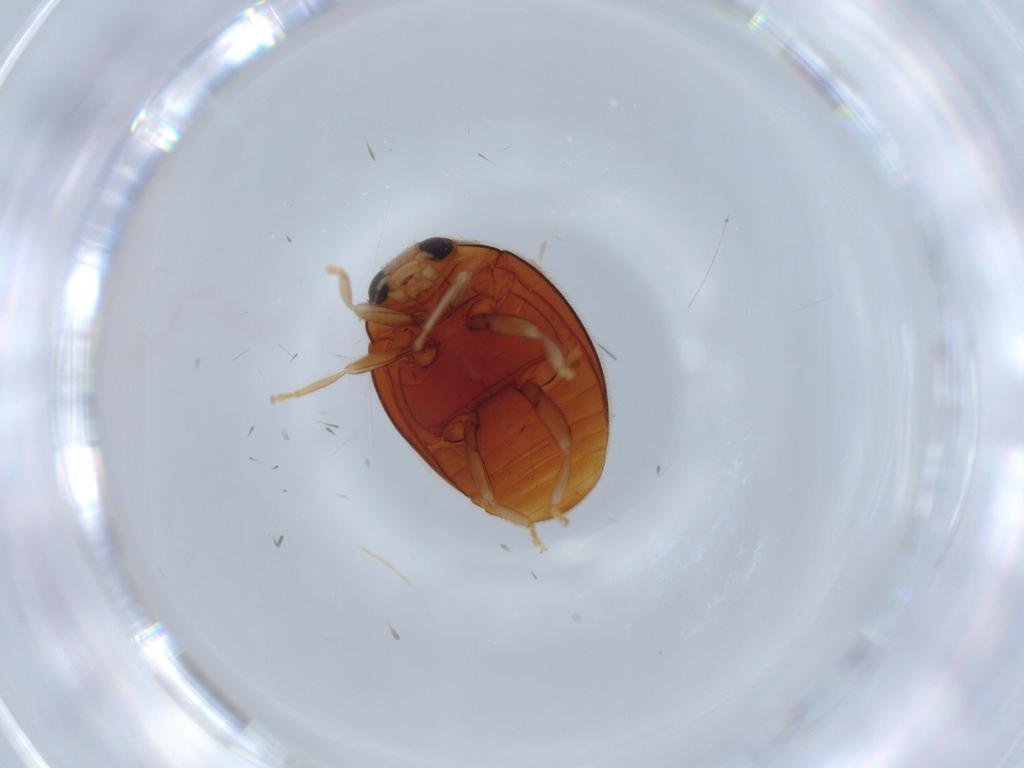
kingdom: Animalia
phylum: Arthropoda
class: Insecta
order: Coleoptera
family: Coccinellidae
